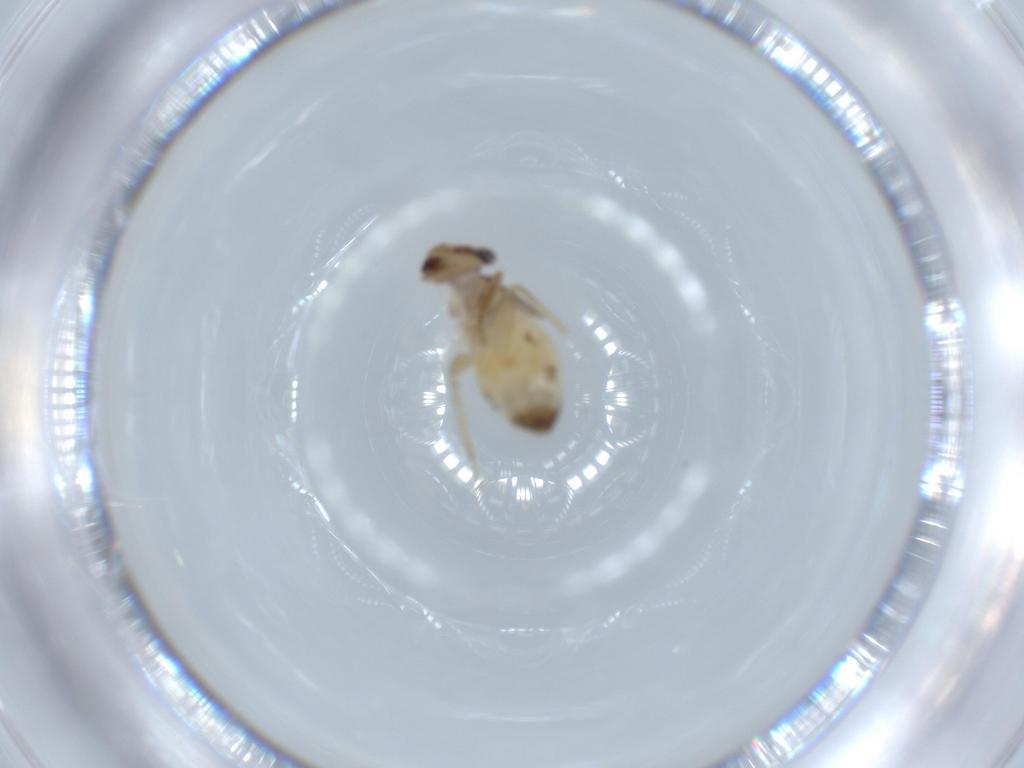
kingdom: Animalia
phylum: Arthropoda
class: Insecta
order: Psocodea
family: Lepidopsocidae
